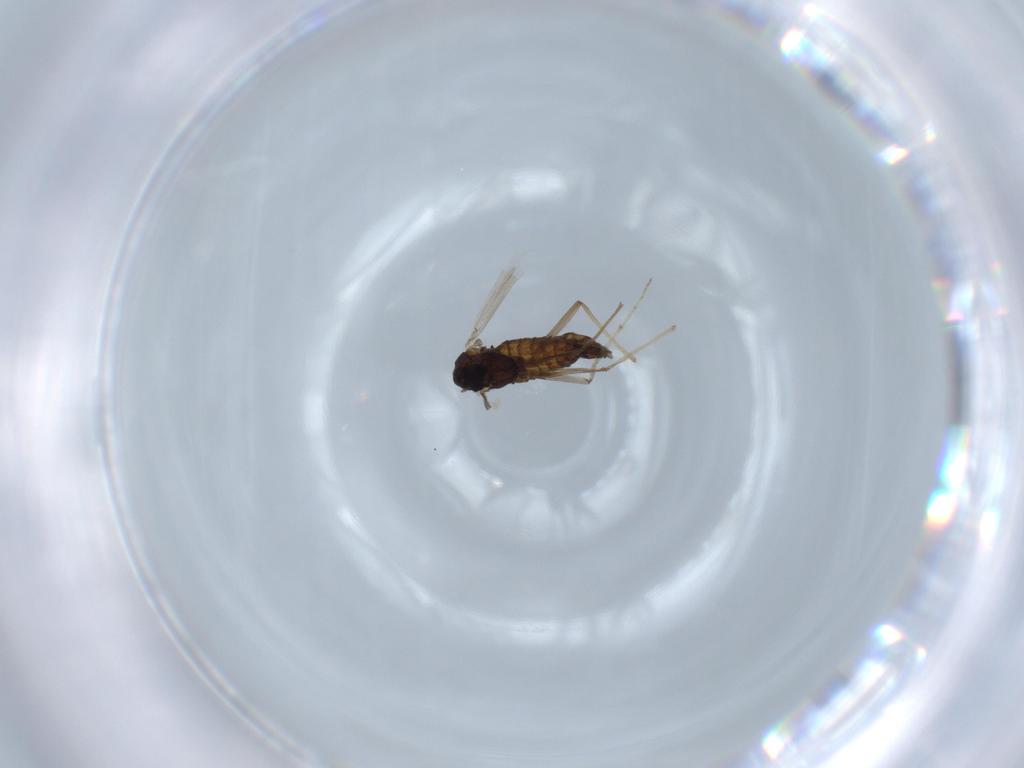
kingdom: Animalia
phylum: Arthropoda
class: Insecta
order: Diptera
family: Chironomidae
